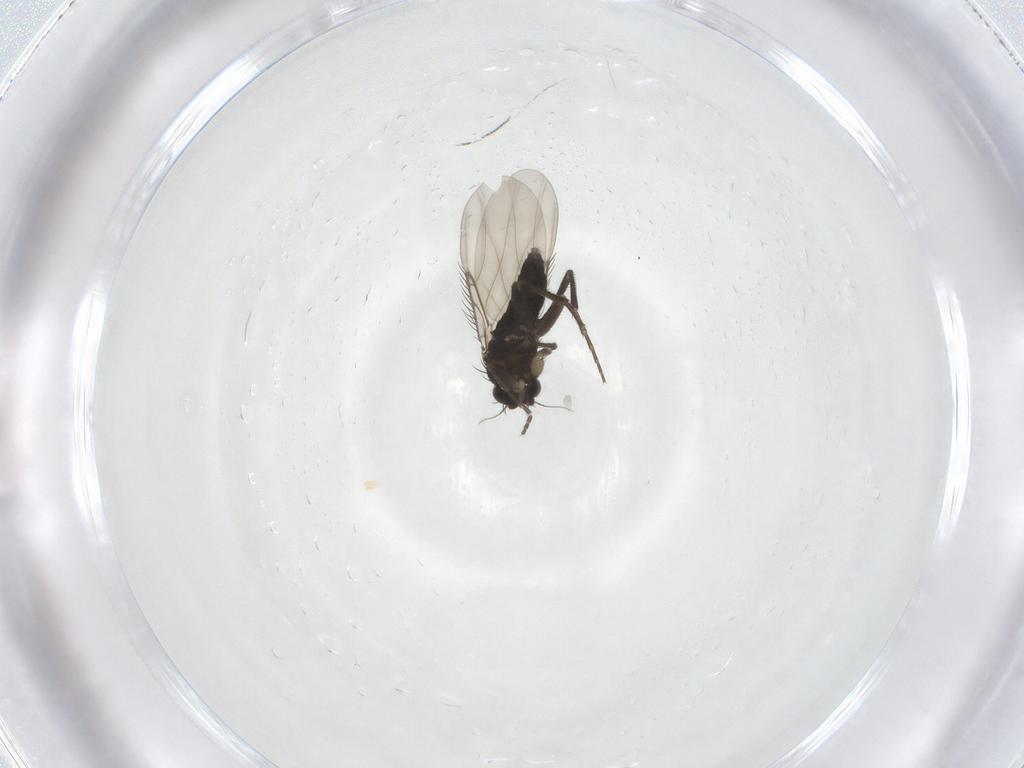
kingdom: Animalia
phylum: Arthropoda
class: Insecta
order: Diptera
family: Phoridae
